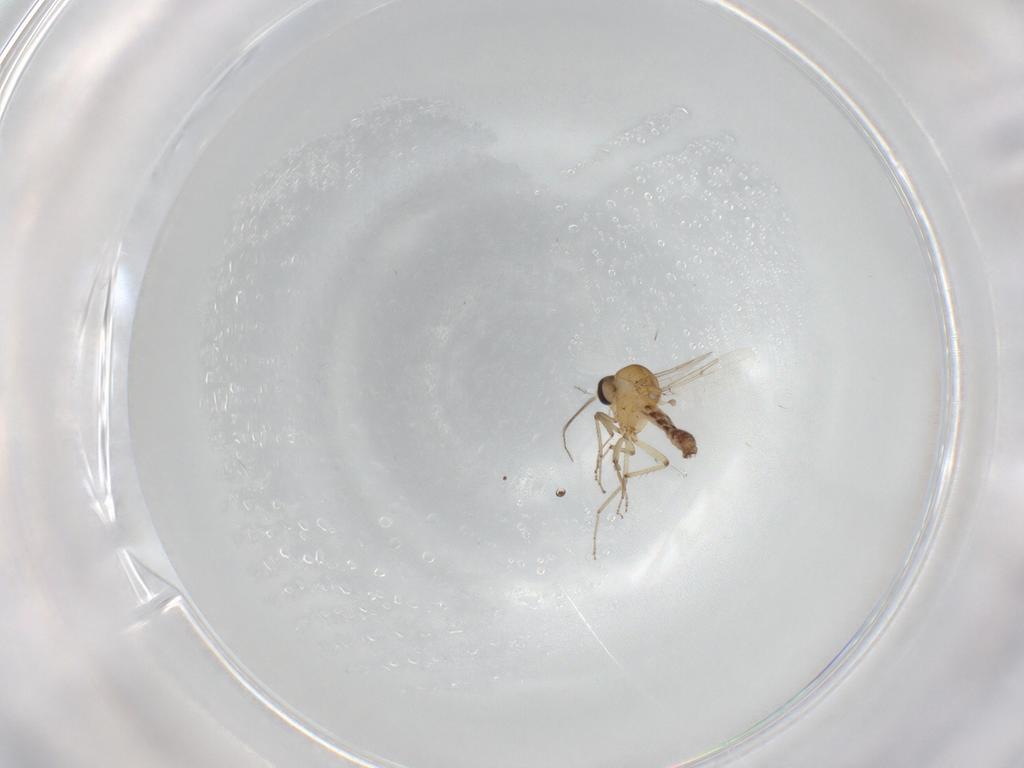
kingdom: Animalia
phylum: Arthropoda
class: Insecta
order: Diptera
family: Ceratopogonidae
